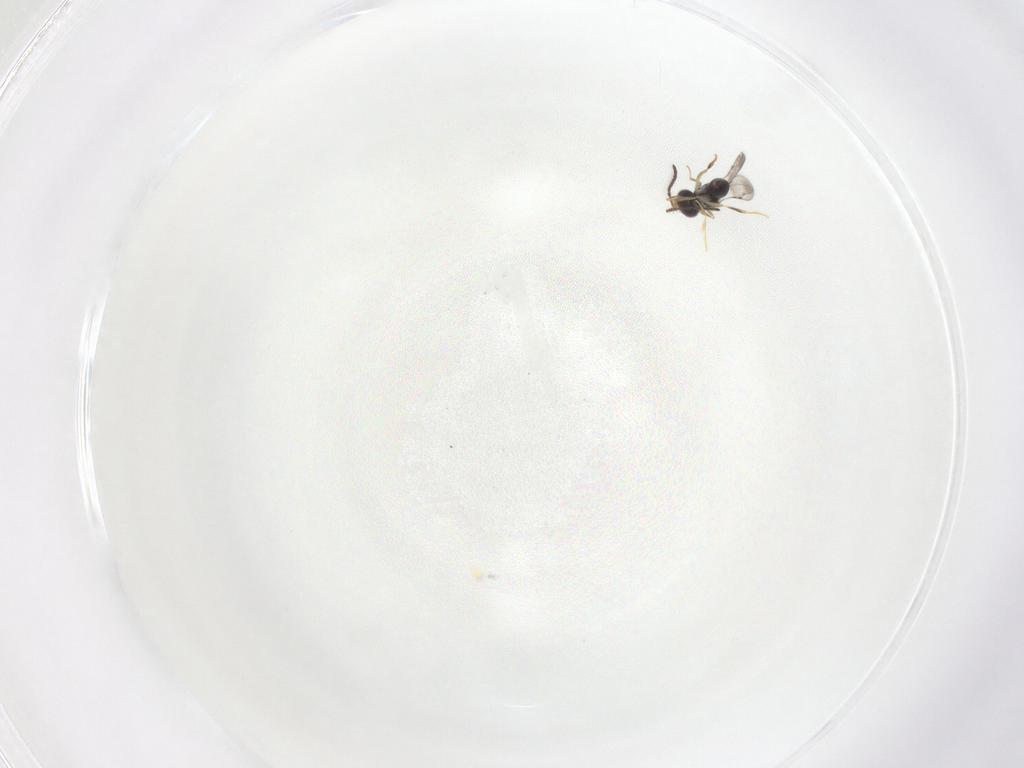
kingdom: Animalia
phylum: Arthropoda
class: Insecta
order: Hymenoptera
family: Ceraphronidae
